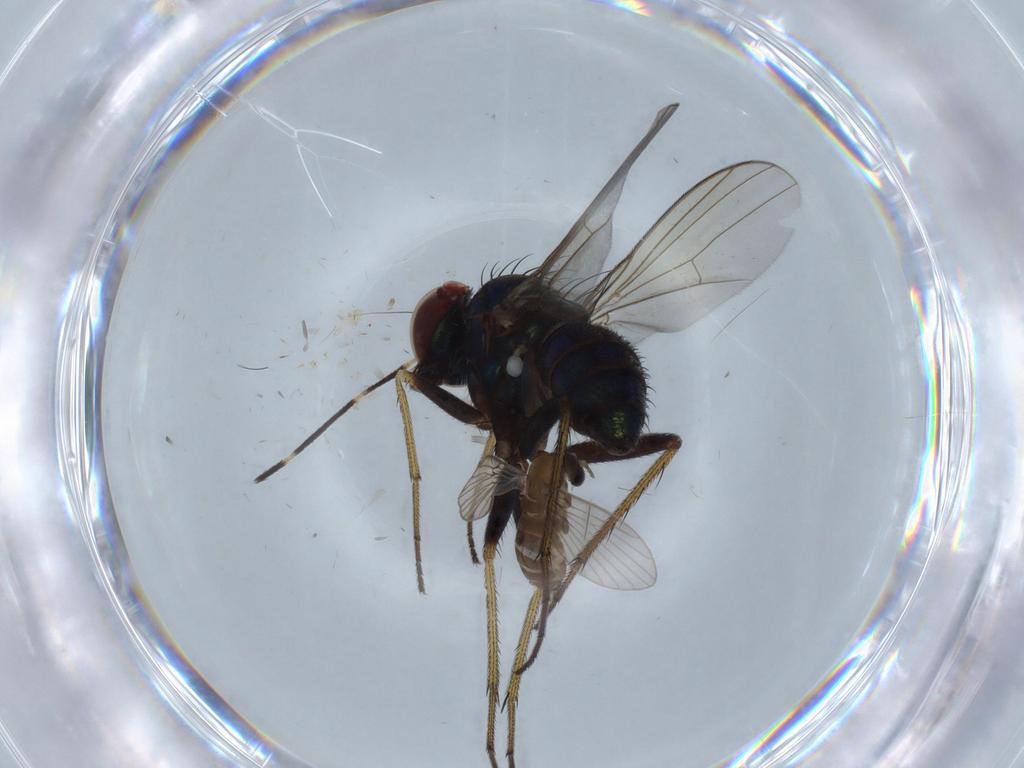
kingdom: Animalia
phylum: Arthropoda
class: Insecta
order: Diptera
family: Dolichopodidae
